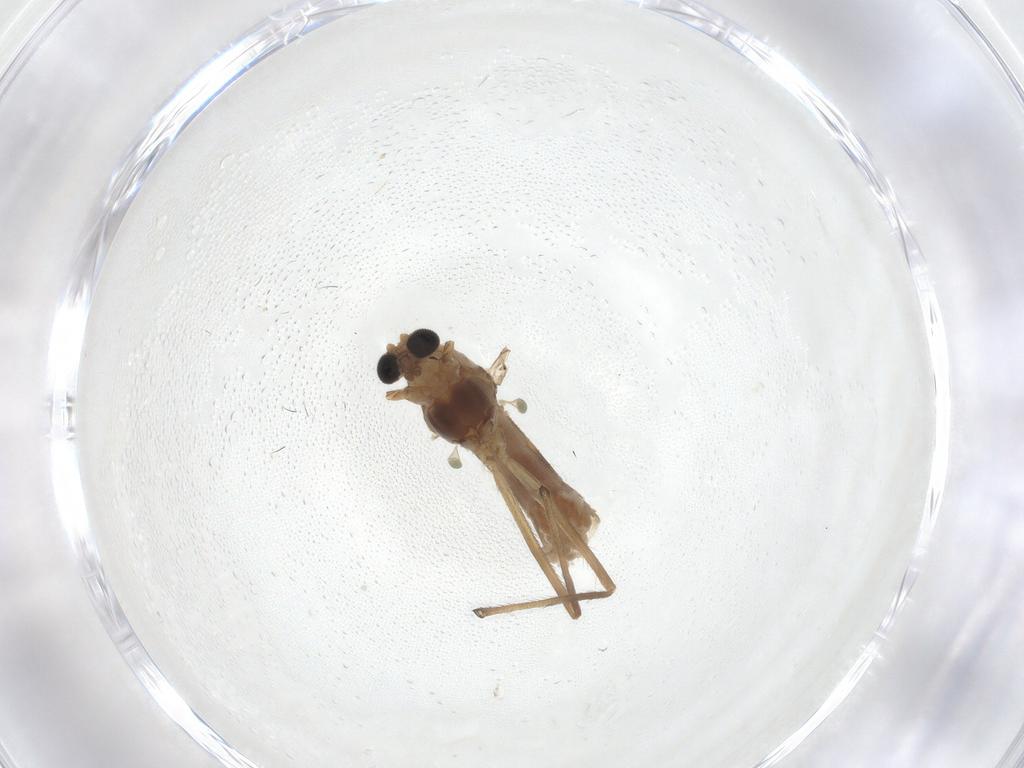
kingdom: Animalia
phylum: Arthropoda
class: Insecta
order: Diptera
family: Chironomidae
